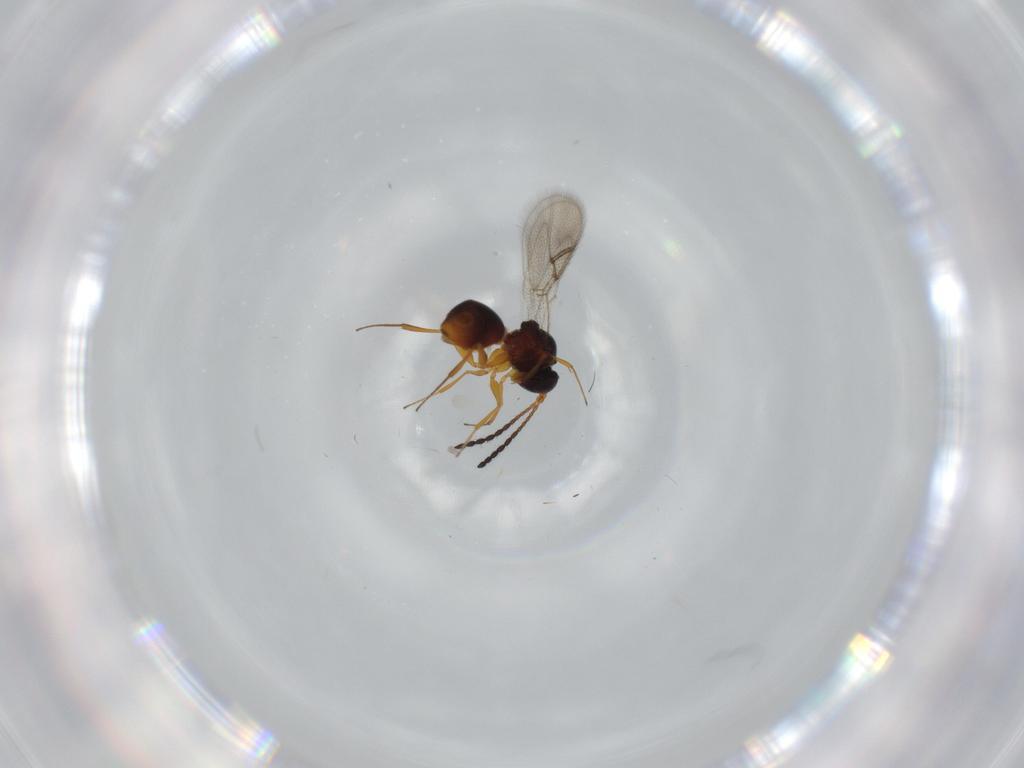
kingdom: Animalia
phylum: Arthropoda
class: Insecta
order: Hymenoptera
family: Figitidae
